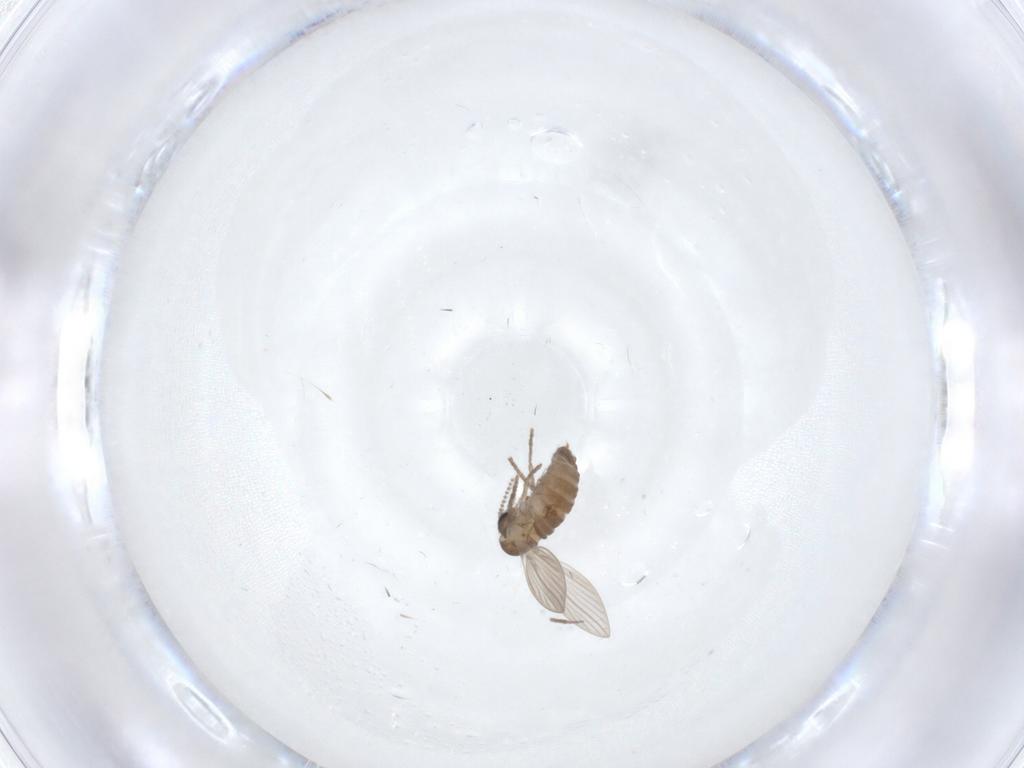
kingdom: Animalia
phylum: Arthropoda
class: Insecta
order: Diptera
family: Psychodidae
